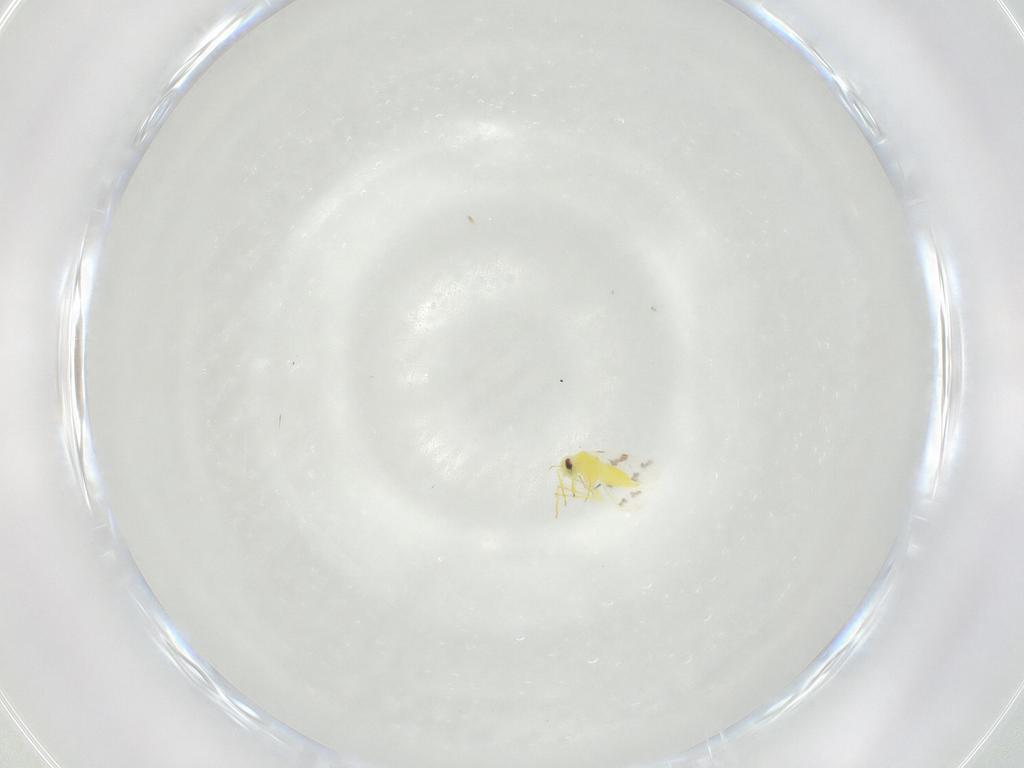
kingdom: Animalia
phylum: Arthropoda
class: Insecta
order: Hemiptera
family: Aleyrodidae
